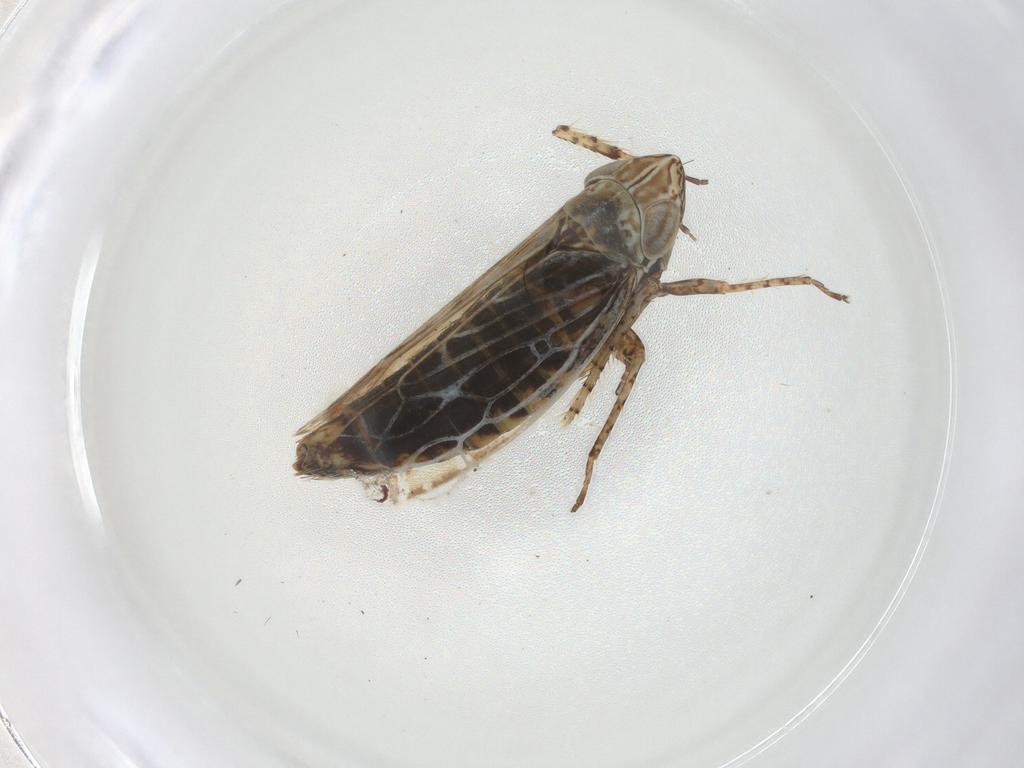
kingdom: Animalia
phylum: Arthropoda
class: Insecta
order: Hemiptera
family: Cicadellidae
